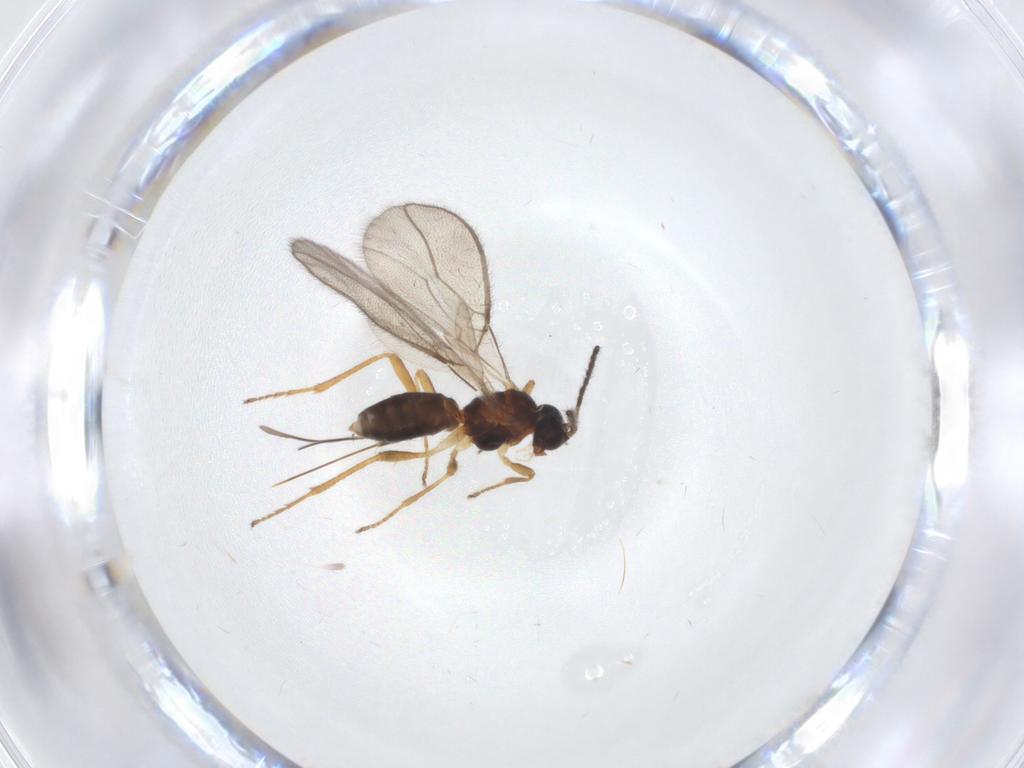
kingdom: Animalia
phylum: Arthropoda
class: Insecta
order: Hymenoptera
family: Braconidae
